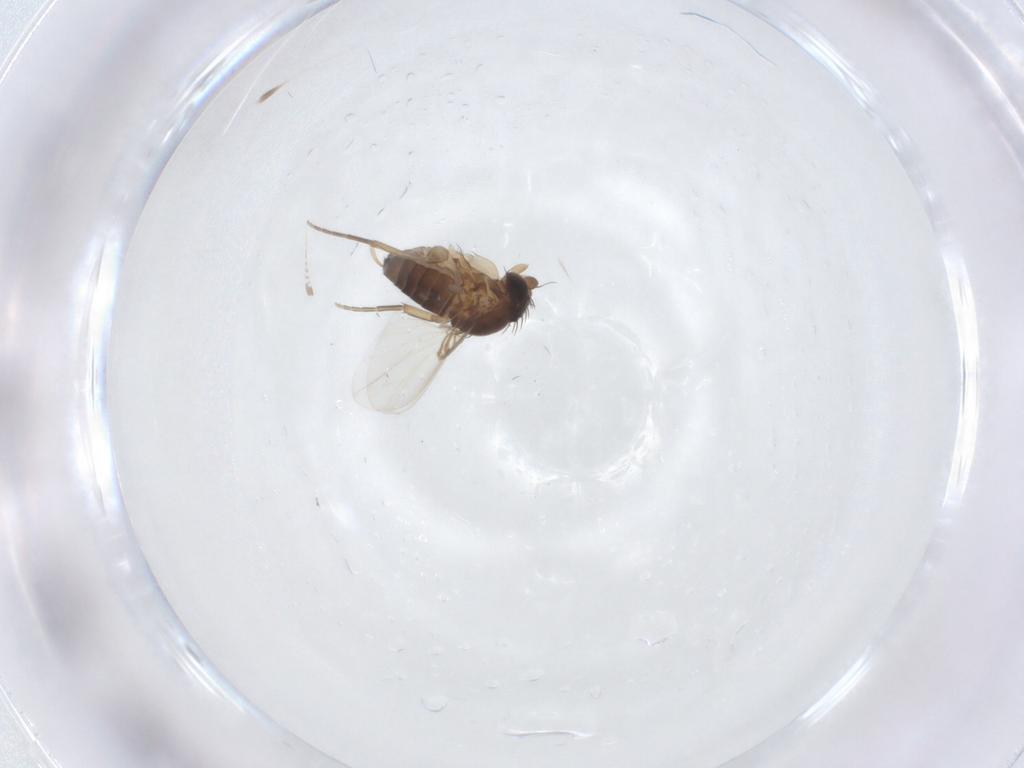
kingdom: Animalia
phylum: Arthropoda
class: Insecta
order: Diptera
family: Phoridae
